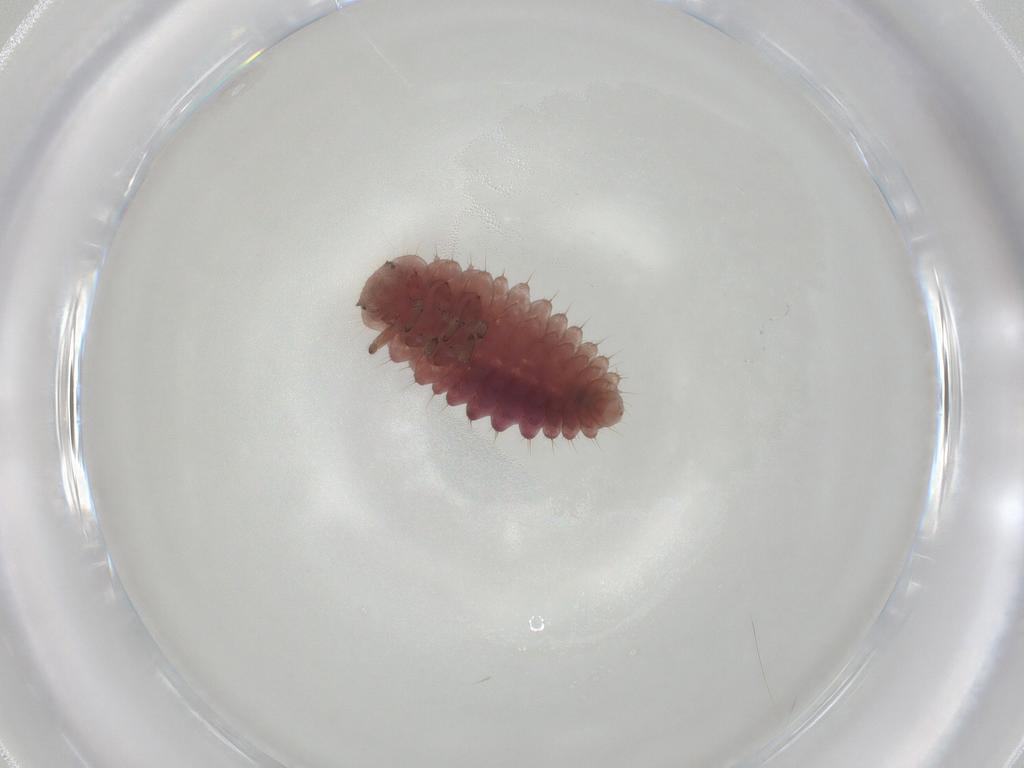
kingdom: Animalia
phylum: Arthropoda
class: Insecta
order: Coleoptera
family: Coccinellidae
